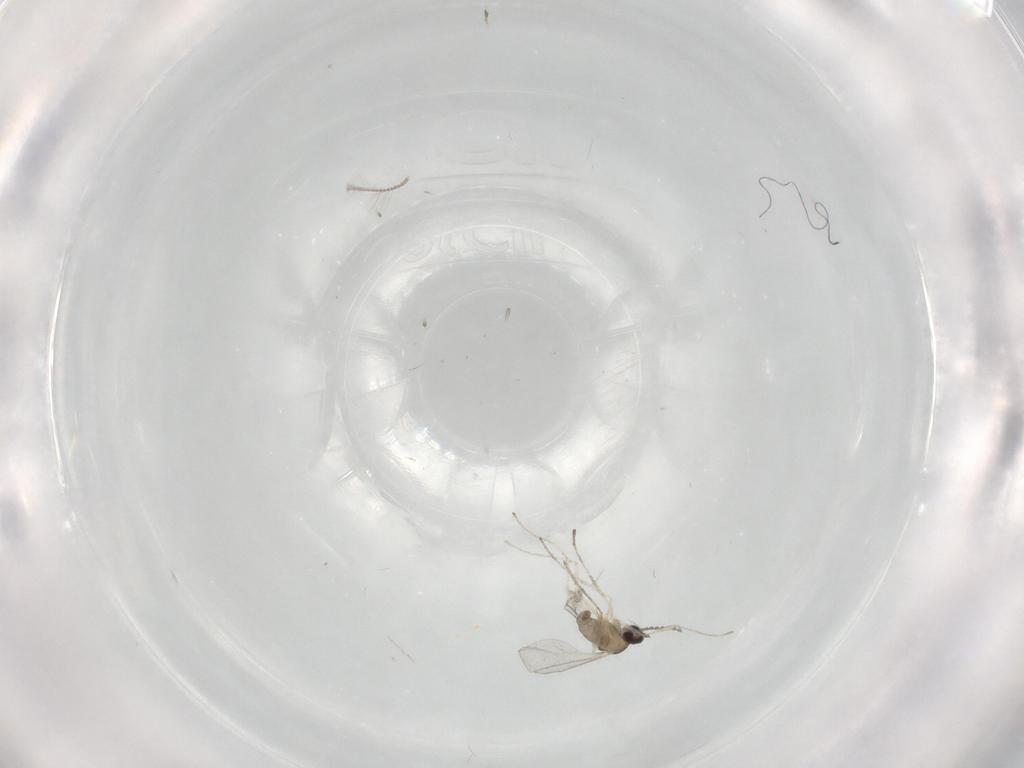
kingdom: Animalia
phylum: Arthropoda
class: Insecta
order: Diptera
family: Cecidomyiidae
